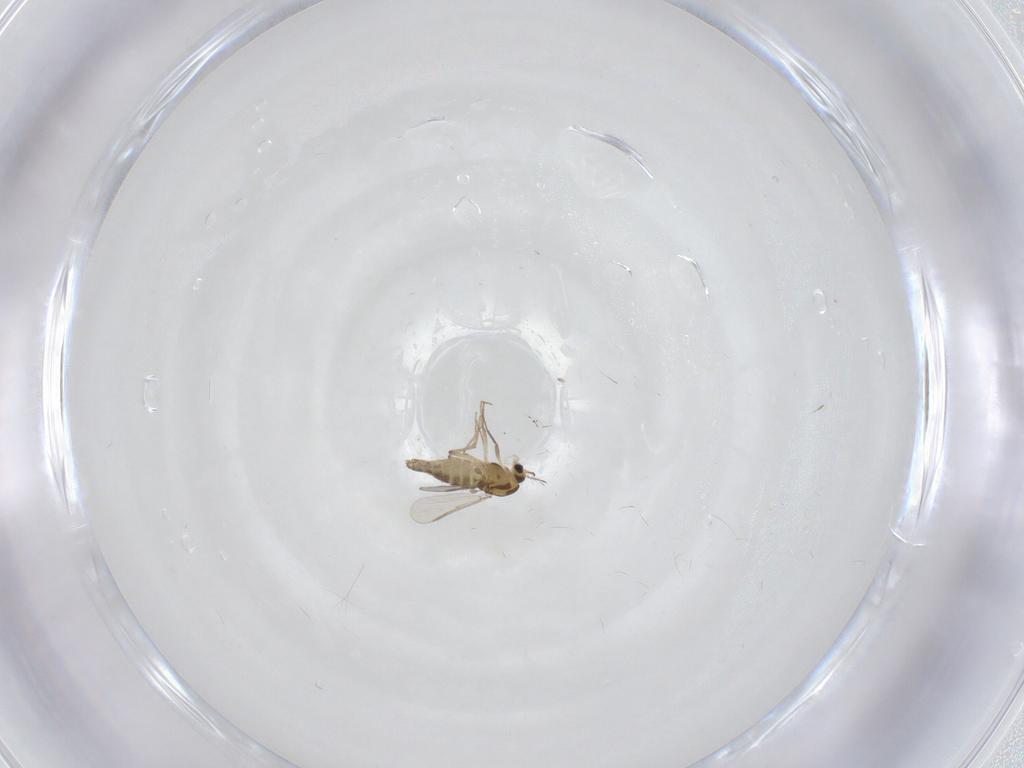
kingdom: Animalia
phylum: Arthropoda
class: Insecta
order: Diptera
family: Chironomidae
